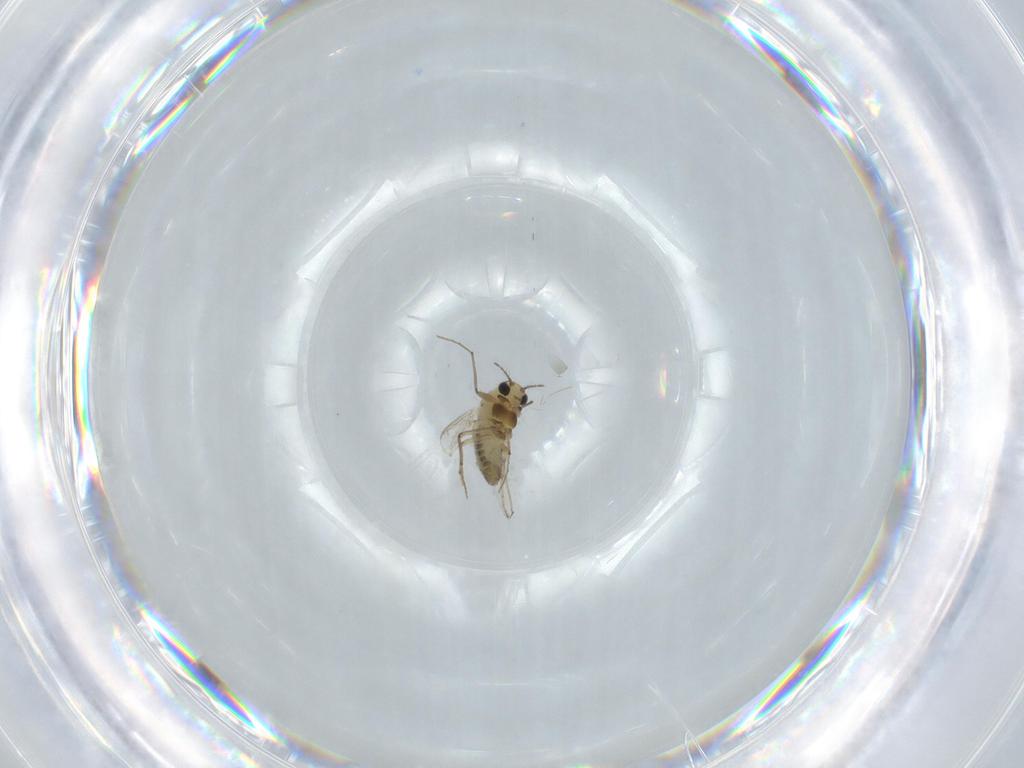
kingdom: Animalia
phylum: Arthropoda
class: Insecta
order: Diptera
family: Chironomidae
